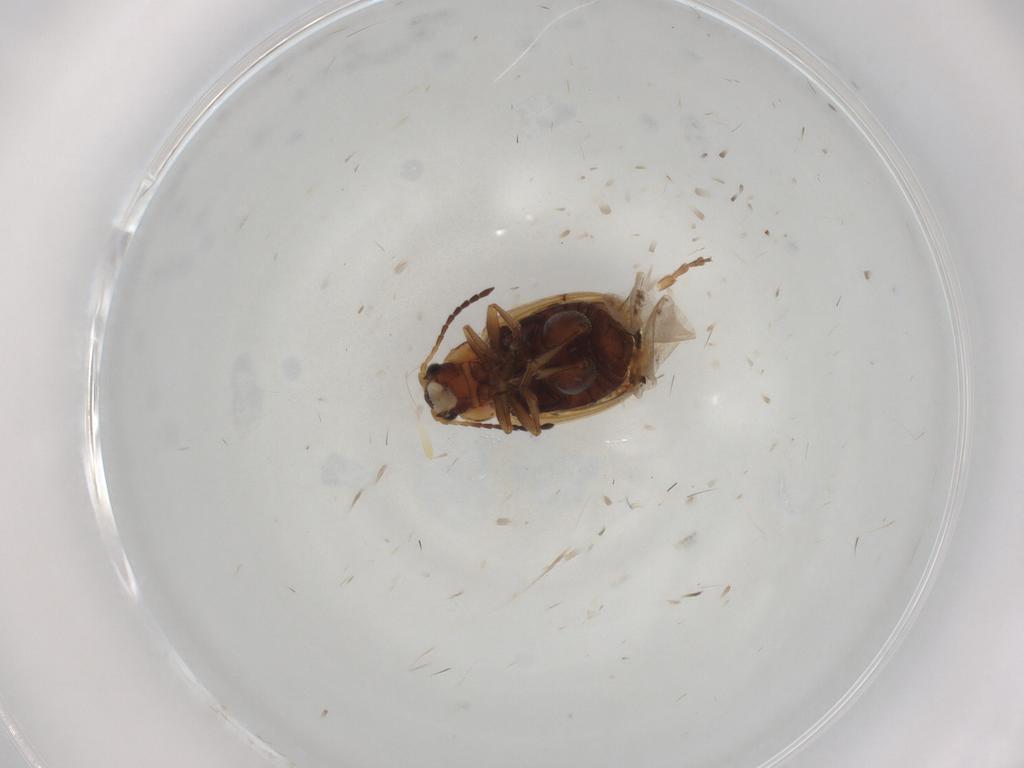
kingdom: Animalia
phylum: Arthropoda
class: Insecta
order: Coleoptera
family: Chrysomelidae
